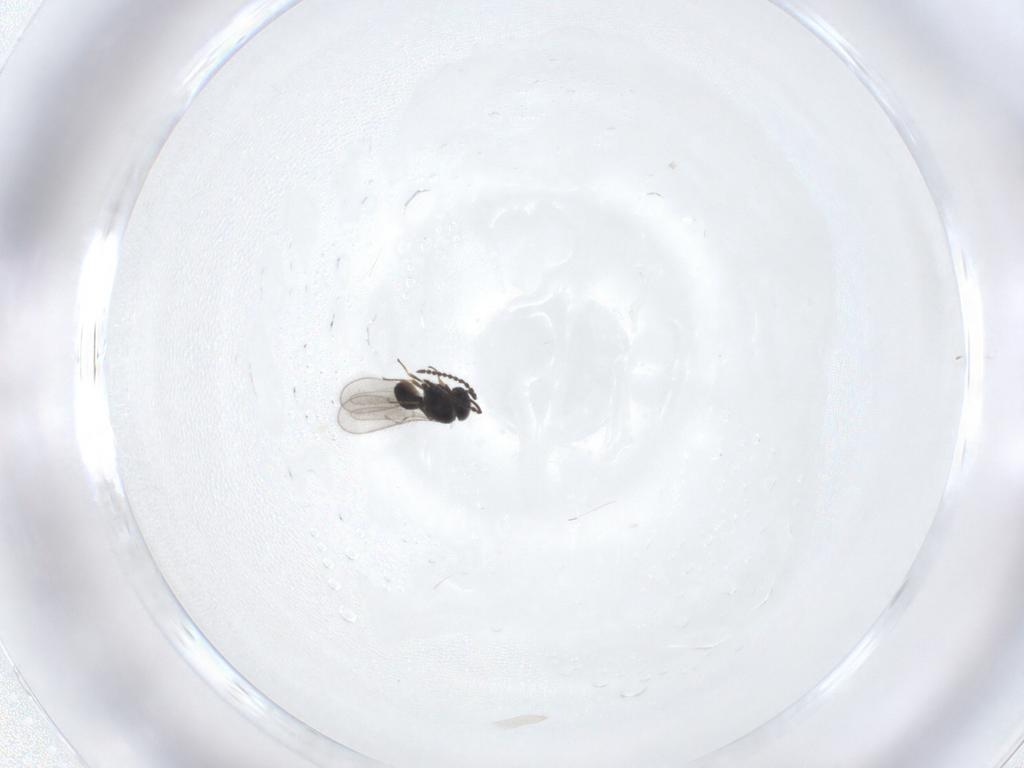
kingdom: Animalia
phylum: Arthropoda
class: Insecta
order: Hymenoptera
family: Scelionidae
